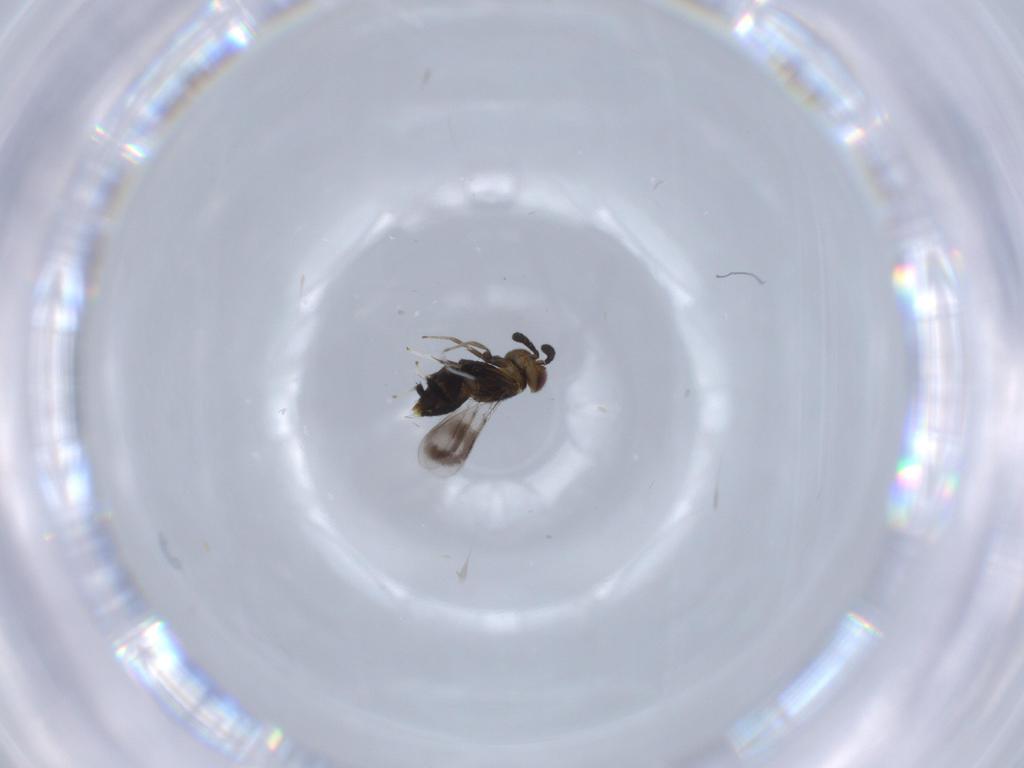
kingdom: Animalia
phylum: Arthropoda
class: Insecta
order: Hymenoptera
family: Aphelinidae
